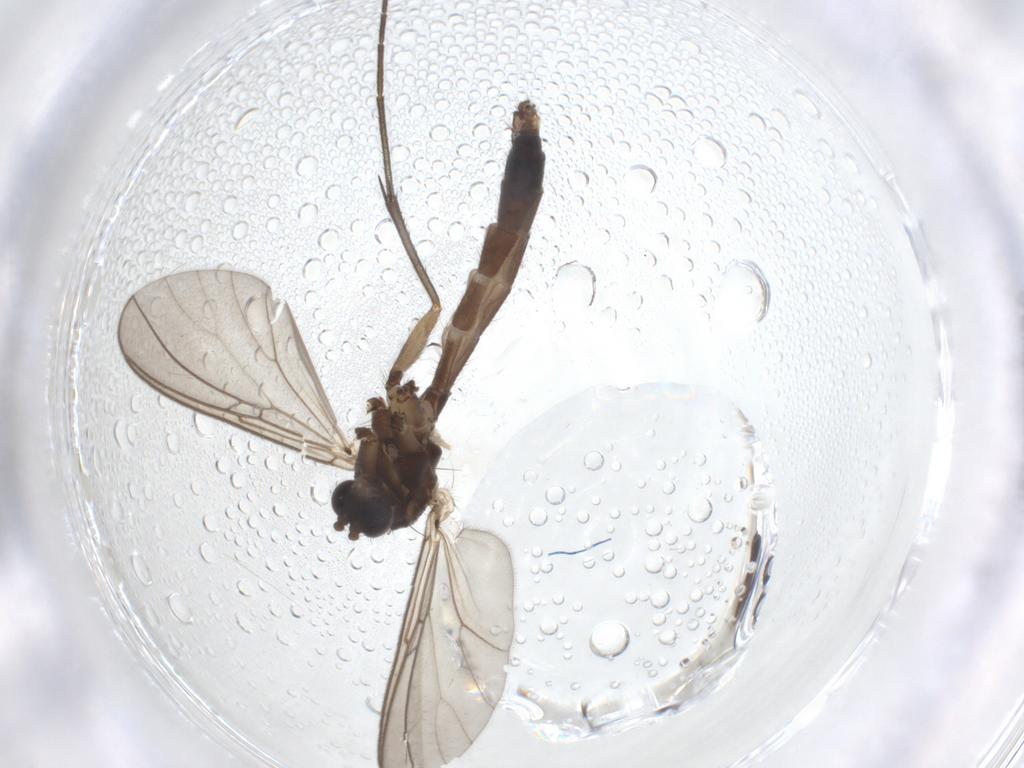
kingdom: Animalia
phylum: Arthropoda
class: Insecta
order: Diptera
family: Mycetophilidae
